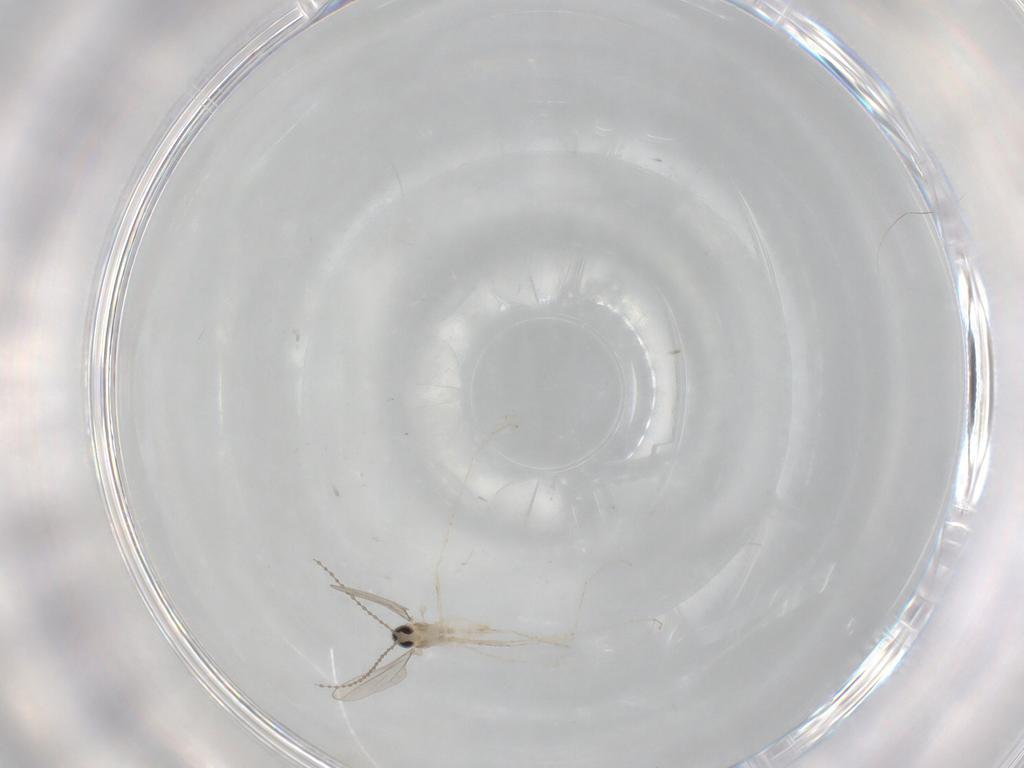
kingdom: Animalia
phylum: Arthropoda
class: Insecta
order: Diptera
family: Cecidomyiidae
